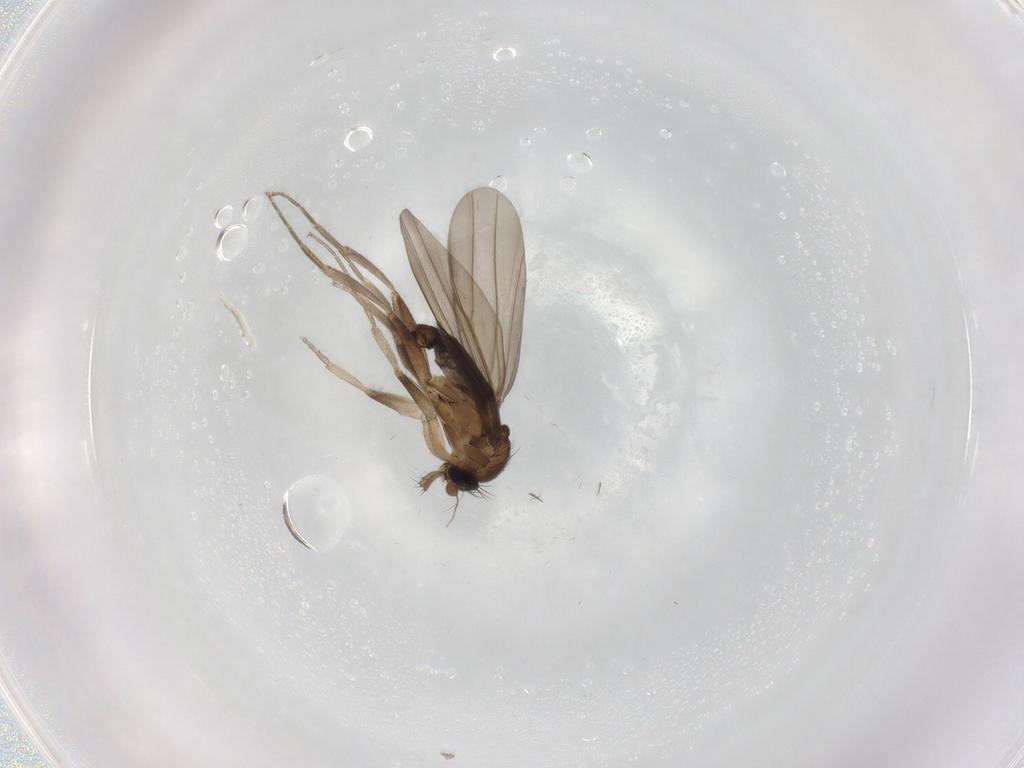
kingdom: Animalia
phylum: Arthropoda
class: Insecta
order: Diptera
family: Phoridae
